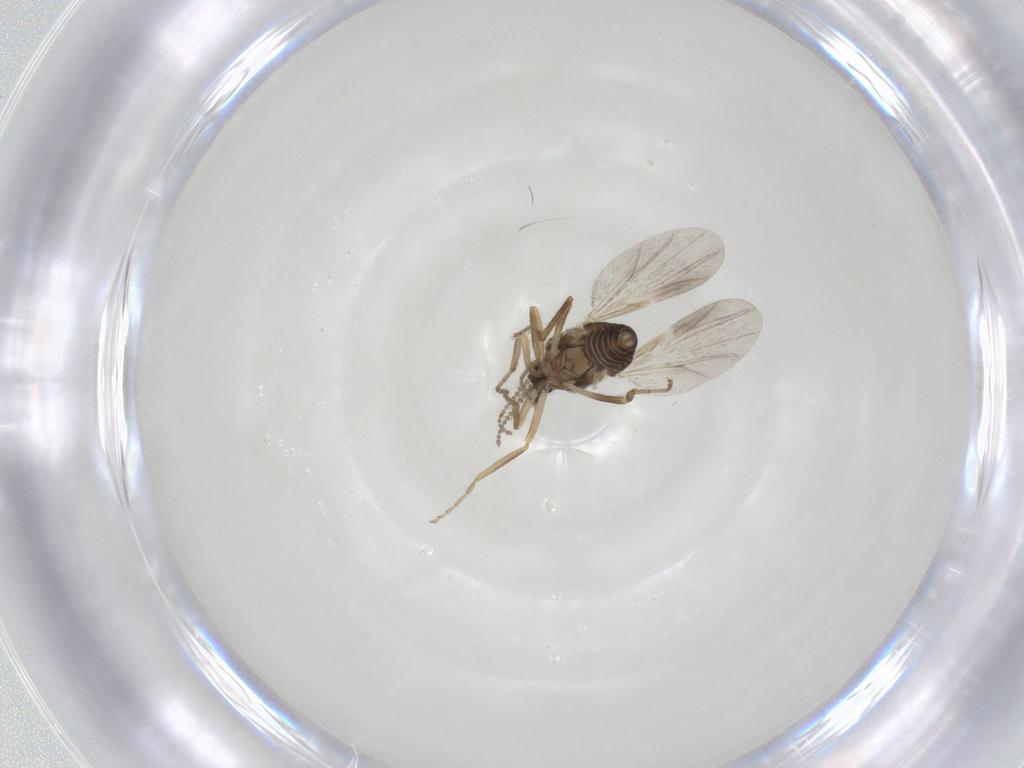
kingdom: Animalia
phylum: Arthropoda
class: Insecta
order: Diptera
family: Ceratopogonidae
